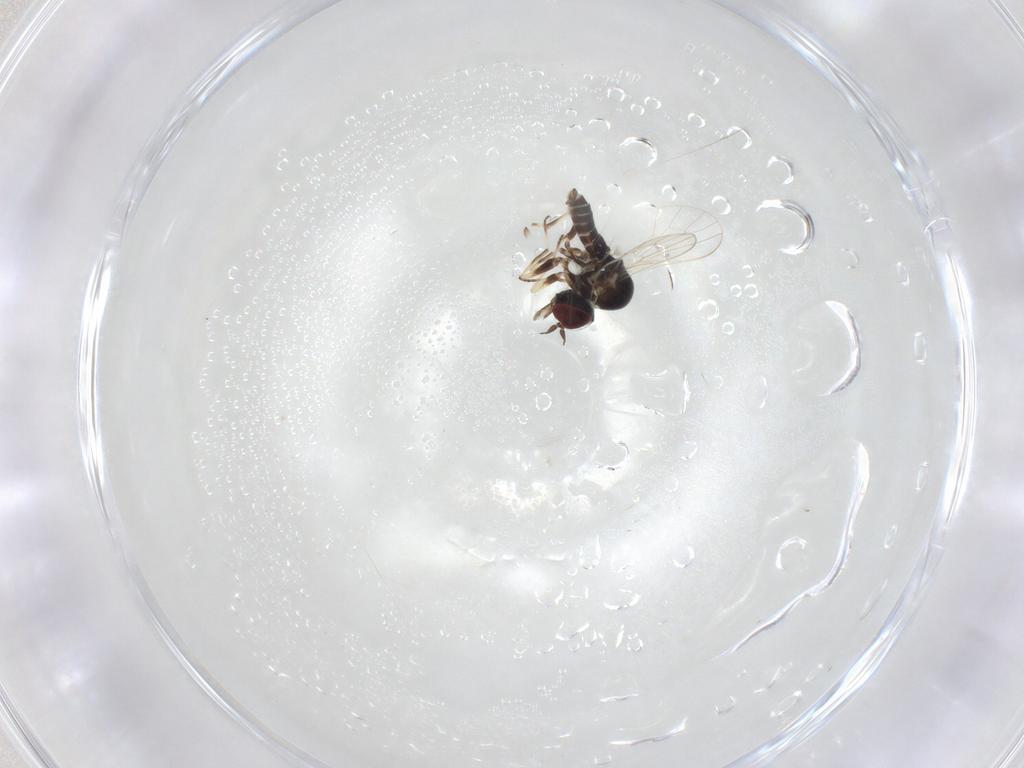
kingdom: Animalia
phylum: Arthropoda
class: Insecta
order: Diptera
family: Bombyliidae
